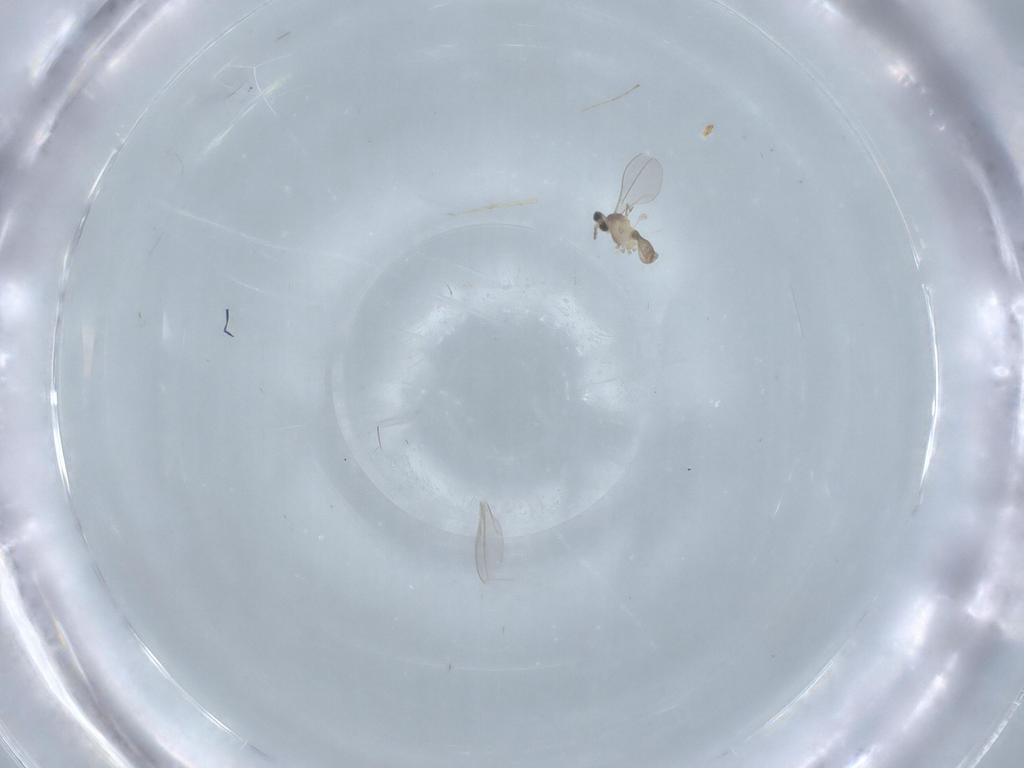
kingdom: Animalia
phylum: Arthropoda
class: Insecta
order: Diptera
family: Cecidomyiidae
